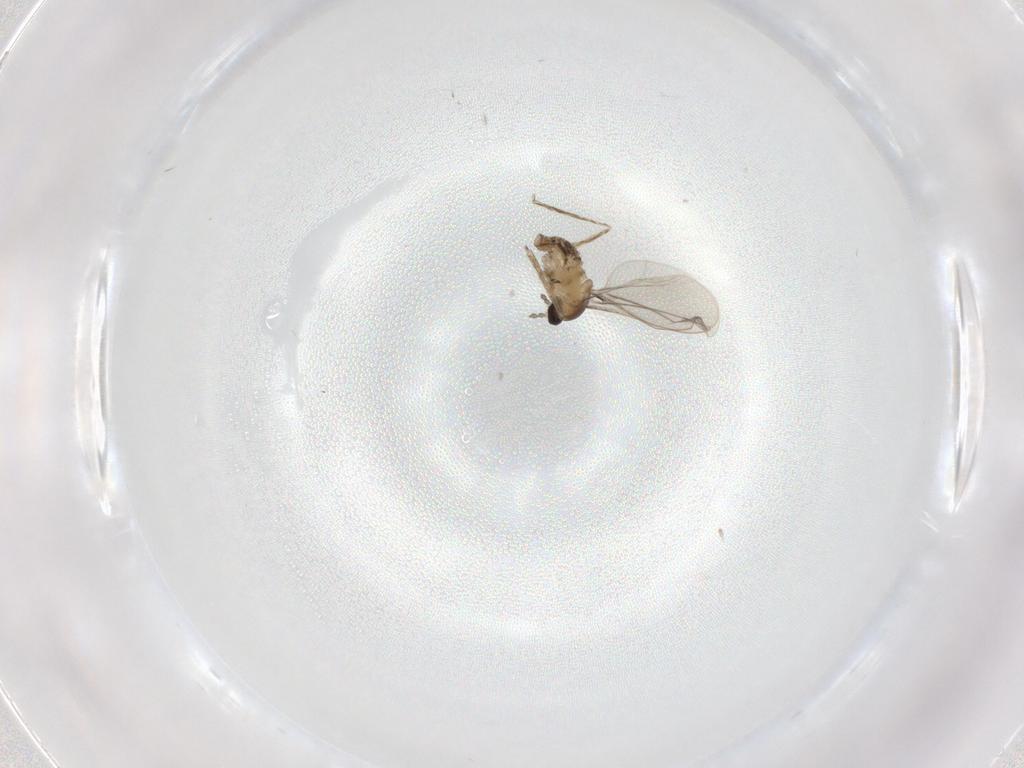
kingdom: Animalia
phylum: Arthropoda
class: Insecta
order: Diptera
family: Cecidomyiidae
